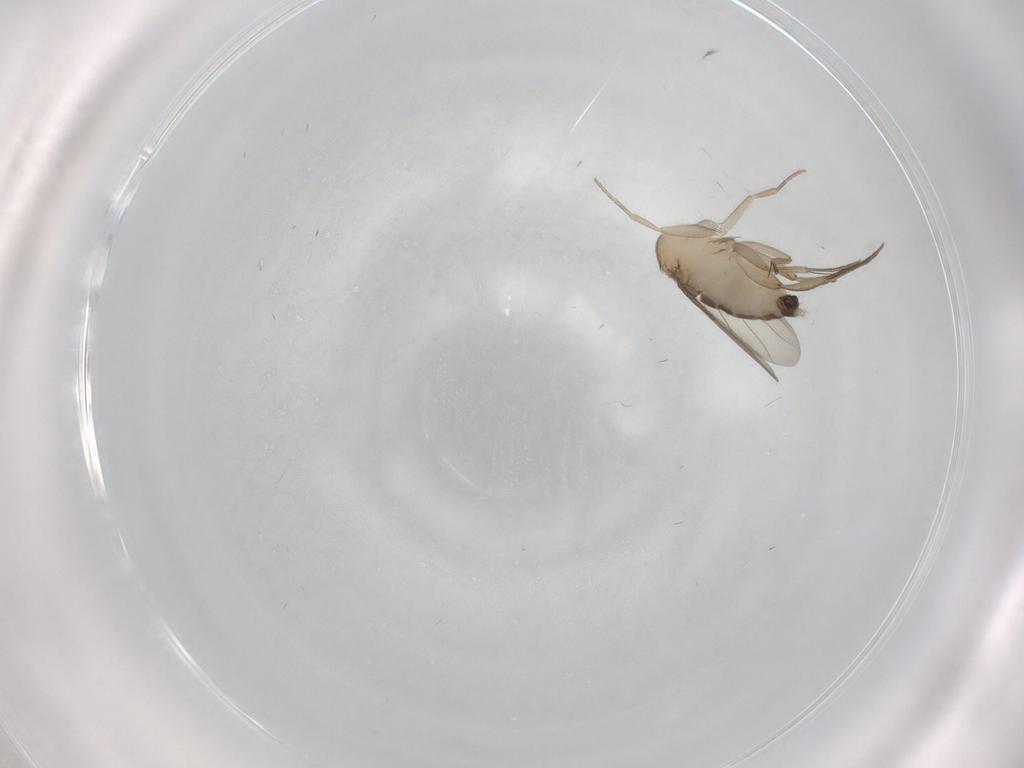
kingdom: Animalia
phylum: Arthropoda
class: Insecta
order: Diptera
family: Phoridae
